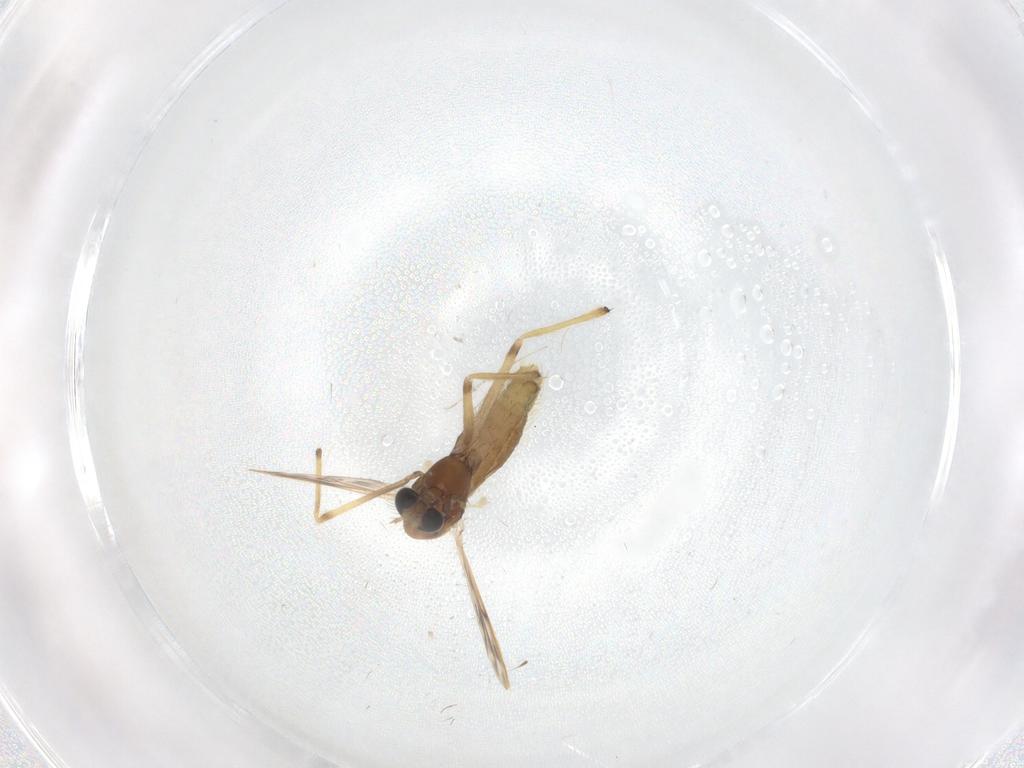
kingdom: Animalia
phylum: Arthropoda
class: Insecta
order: Diptera
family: Chironomidae
